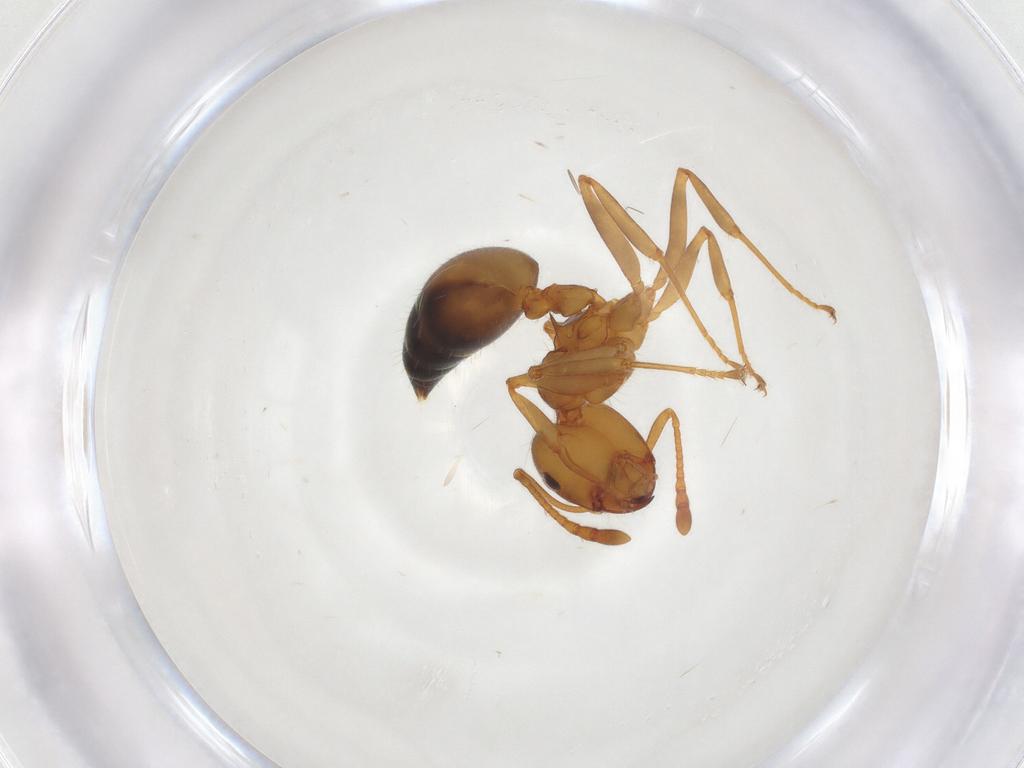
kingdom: Animalia
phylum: Arthropoda
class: Insecta
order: Hymenoptera
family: Formicidae
